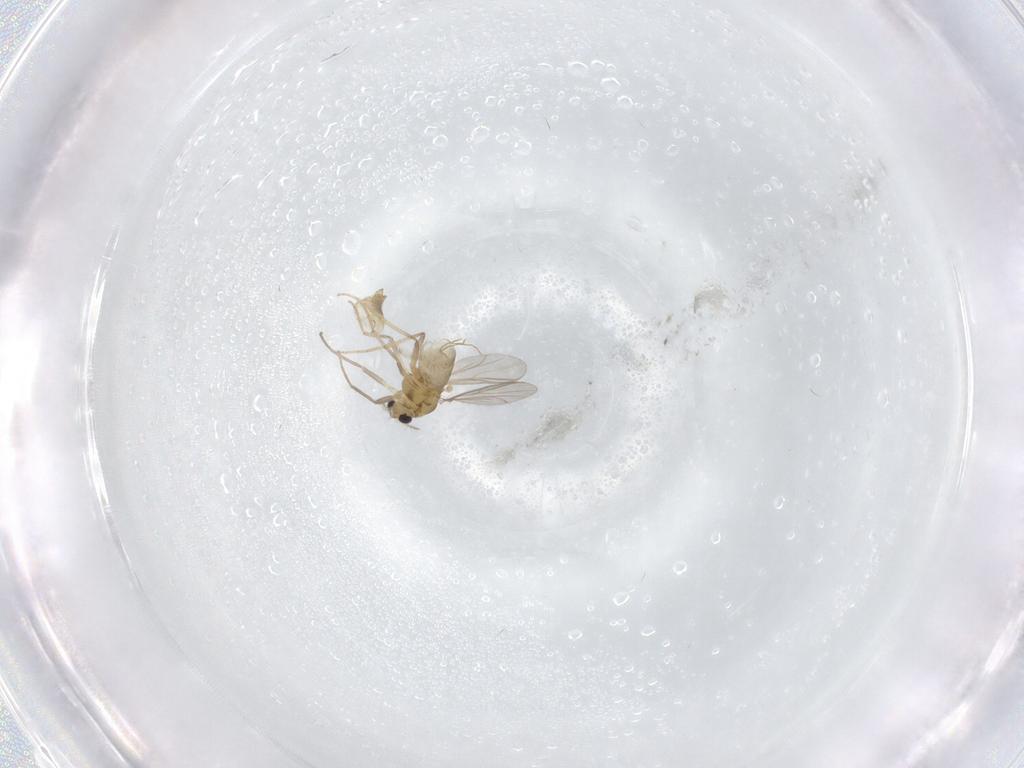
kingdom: Animalia
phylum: Arthropoda
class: Insecta
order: Diptera
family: Chironomidae
